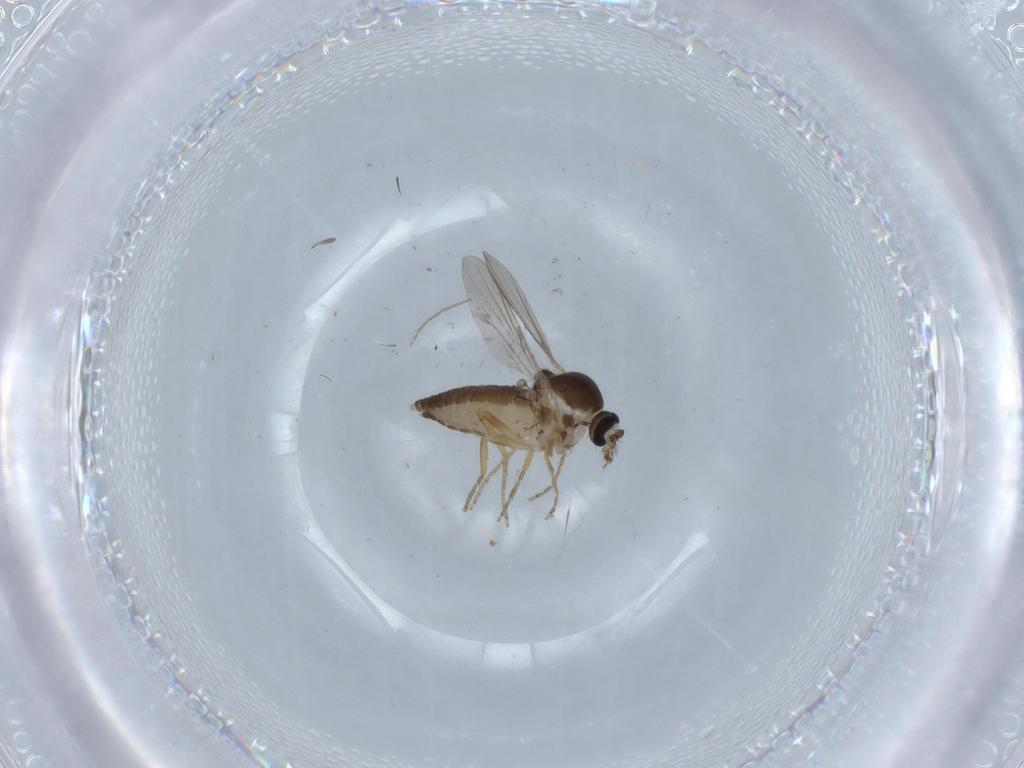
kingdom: Animalia
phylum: Arthropoda
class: Insecta
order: Diptera
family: Ceratopogonidae
